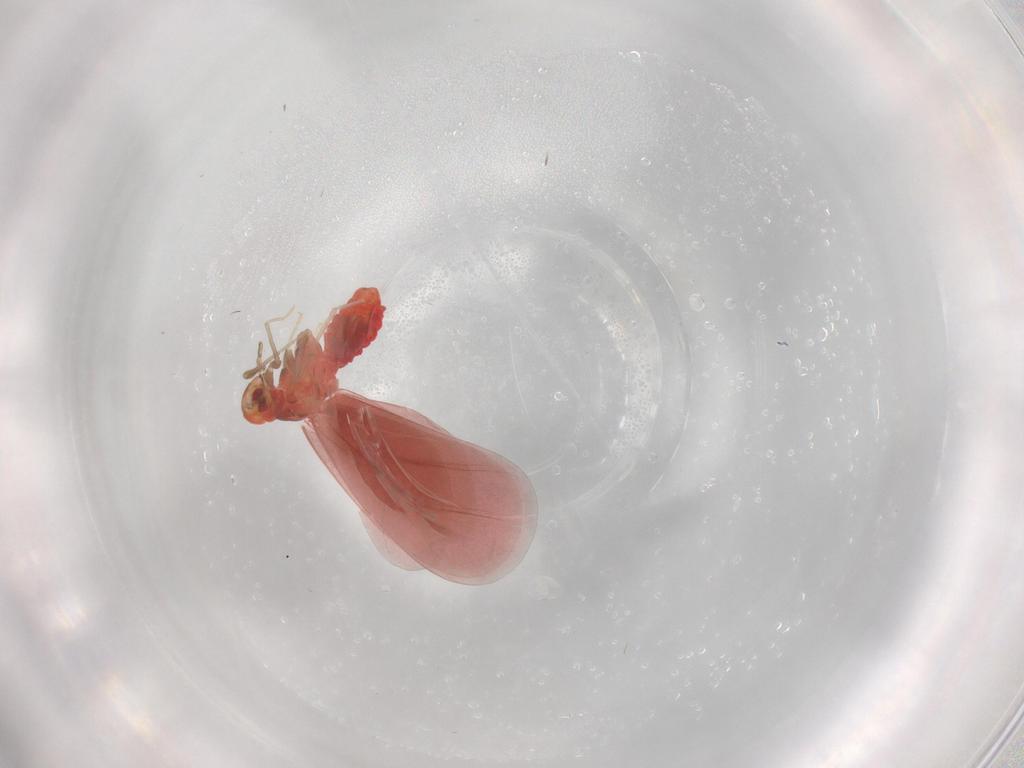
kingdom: Animalia
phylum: Arthropoda
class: Insecta
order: Hemiptera
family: Aleyrodidae
